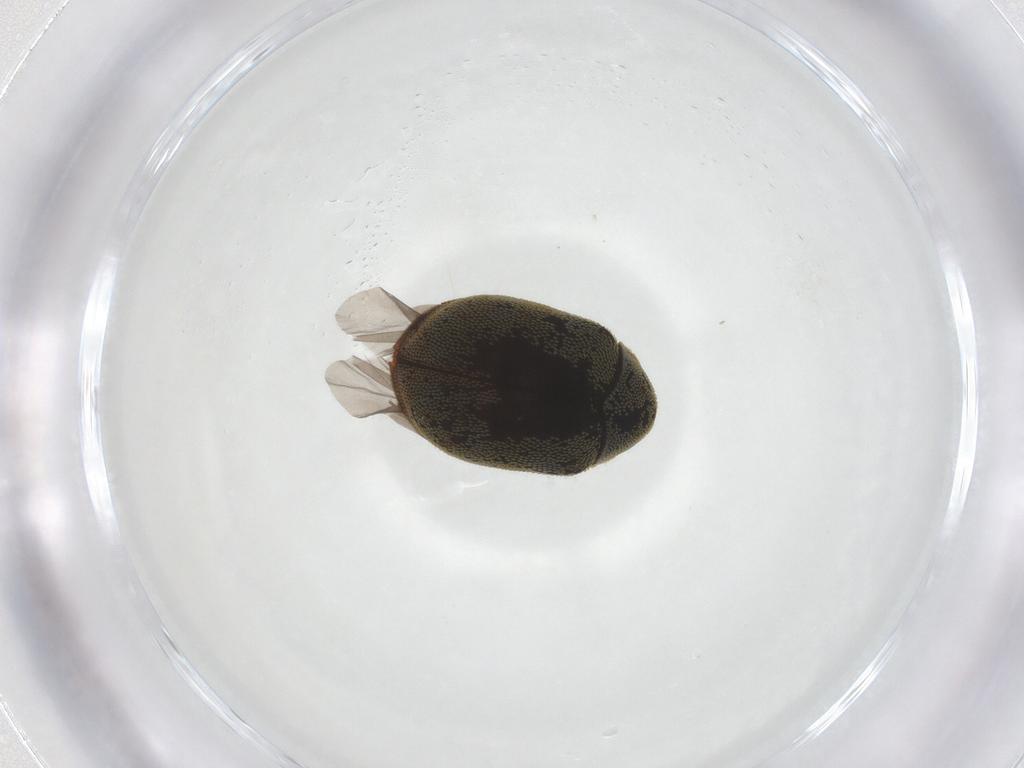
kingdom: Animalia
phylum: Arthropoda
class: Insecta
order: Coleoptera
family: Dermestidae
